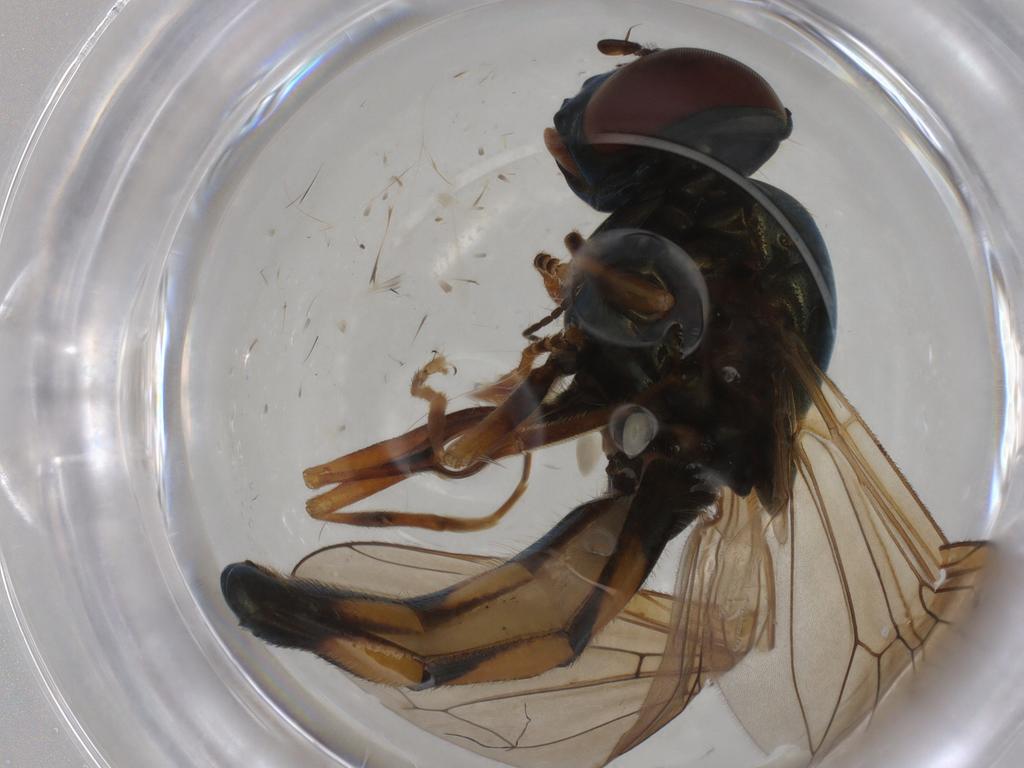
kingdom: Animalia
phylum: Arthropoda
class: Insecta
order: Diptera
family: Syrphidae
